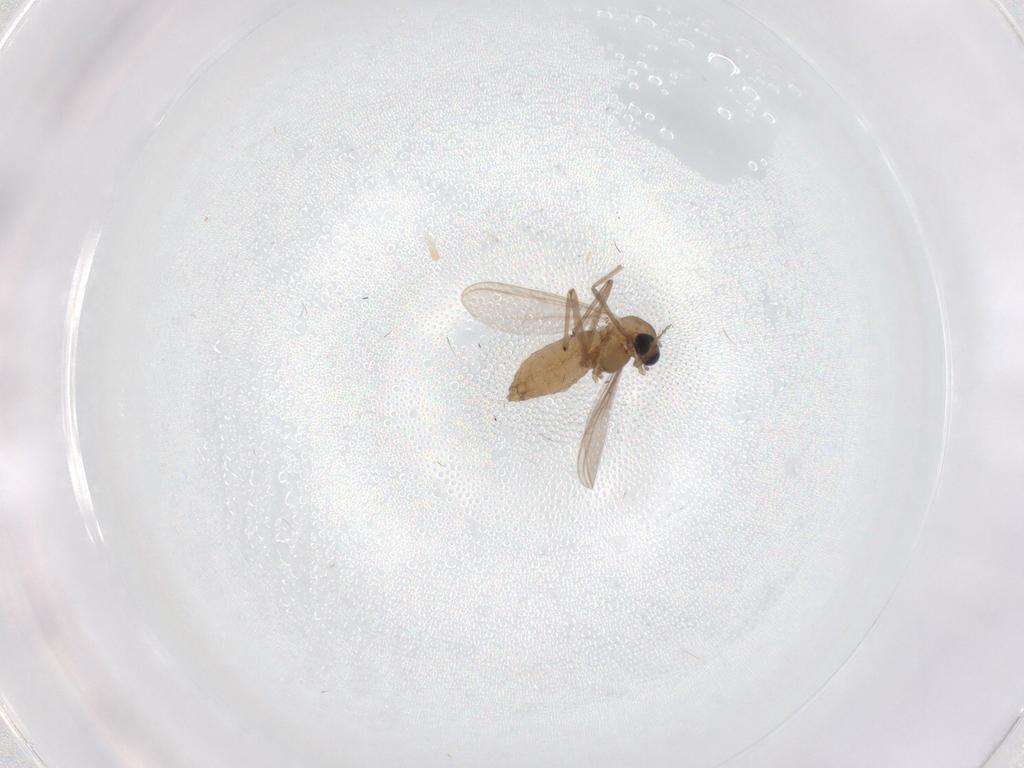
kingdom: Animalia
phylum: Arthropoda
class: Insecta
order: Diptera
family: Chironomidae
